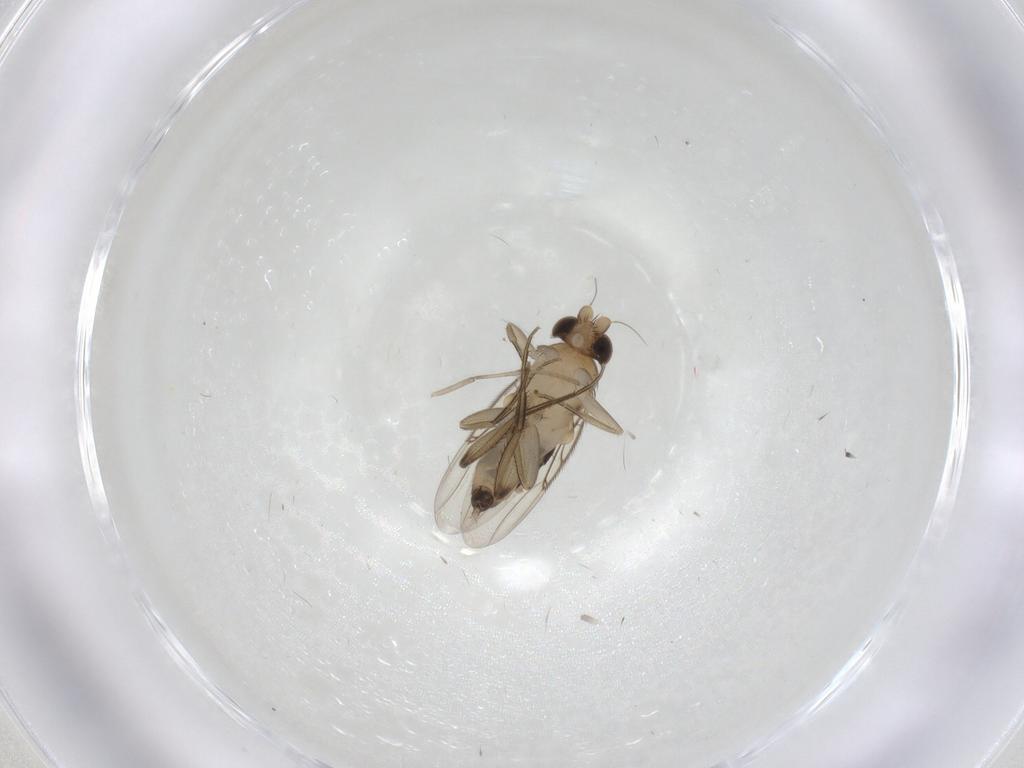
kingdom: Animalia
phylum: Arthropoda
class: Insecta
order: Diptera
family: Phoridae
